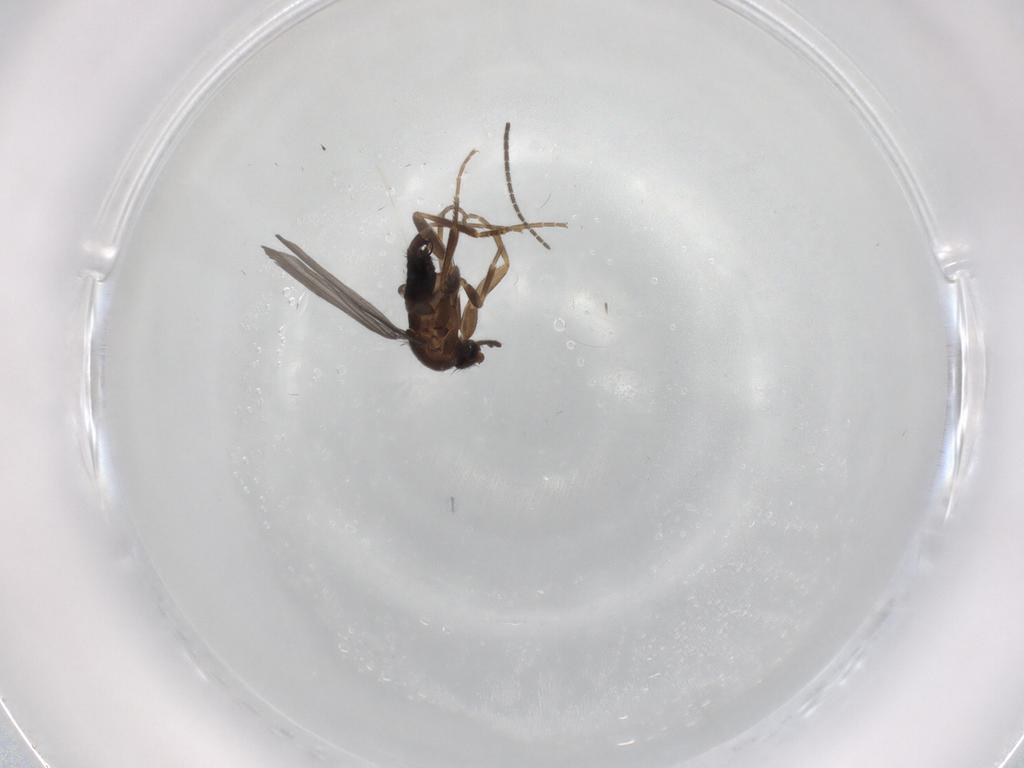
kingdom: Animalia
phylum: Arthropoda
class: Insecta
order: Diptera
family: Sciaridae
